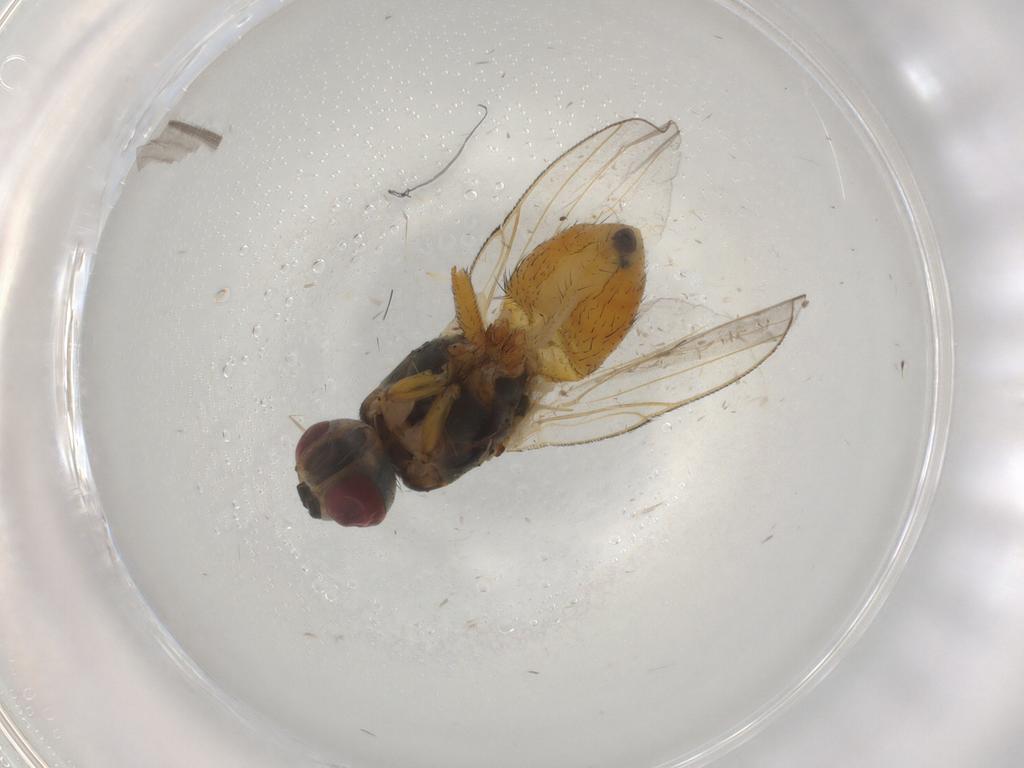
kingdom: Animalia
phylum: Arthropoda
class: Insecta
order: Diptera
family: Muscidae
